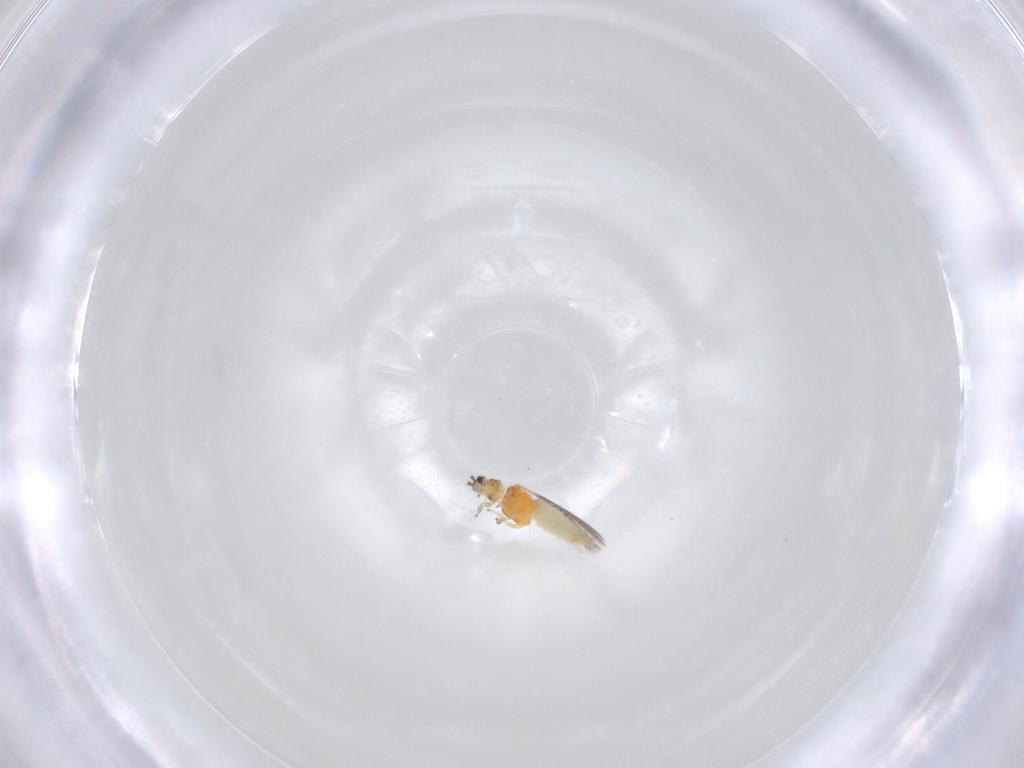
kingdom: Animalia
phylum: Arthropoda
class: Insecta
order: Thysanoptera
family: Thripidae
